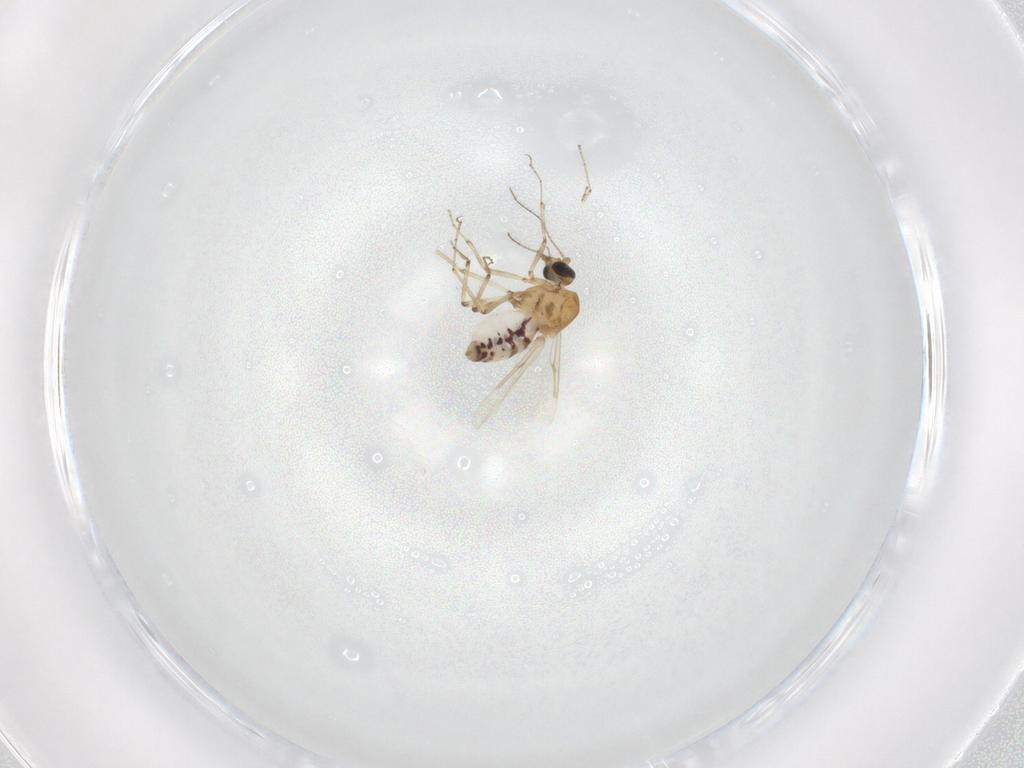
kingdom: Animalia
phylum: Arthropoda
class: Insecta
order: Diptera
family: Ceratopogonidae
